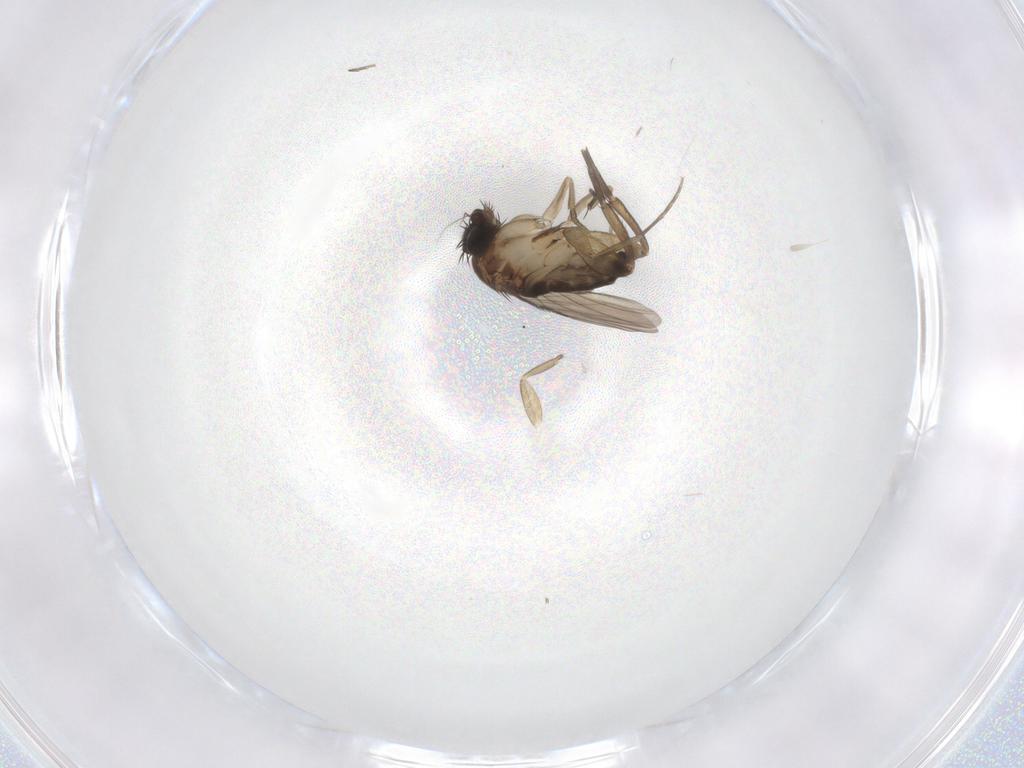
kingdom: Animalia
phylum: Arthropoda
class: Insecta
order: Diptera
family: Phoridae
